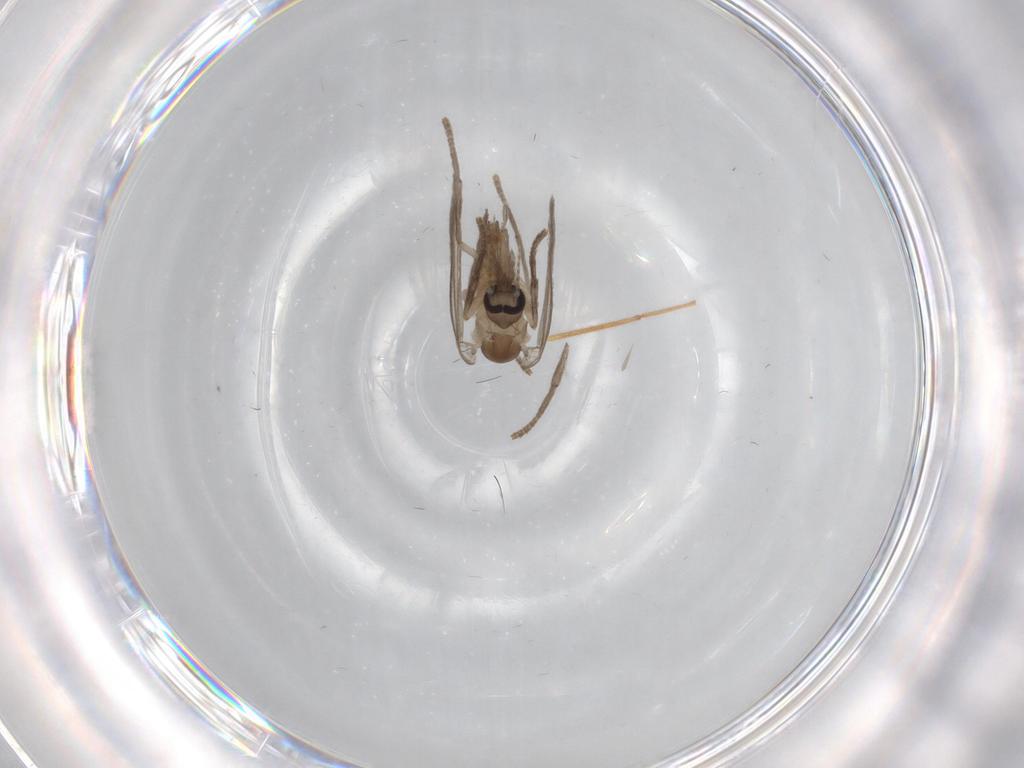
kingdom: Animalia
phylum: Arthropoda
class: Insecta
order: Diptera
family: Psychodidae
